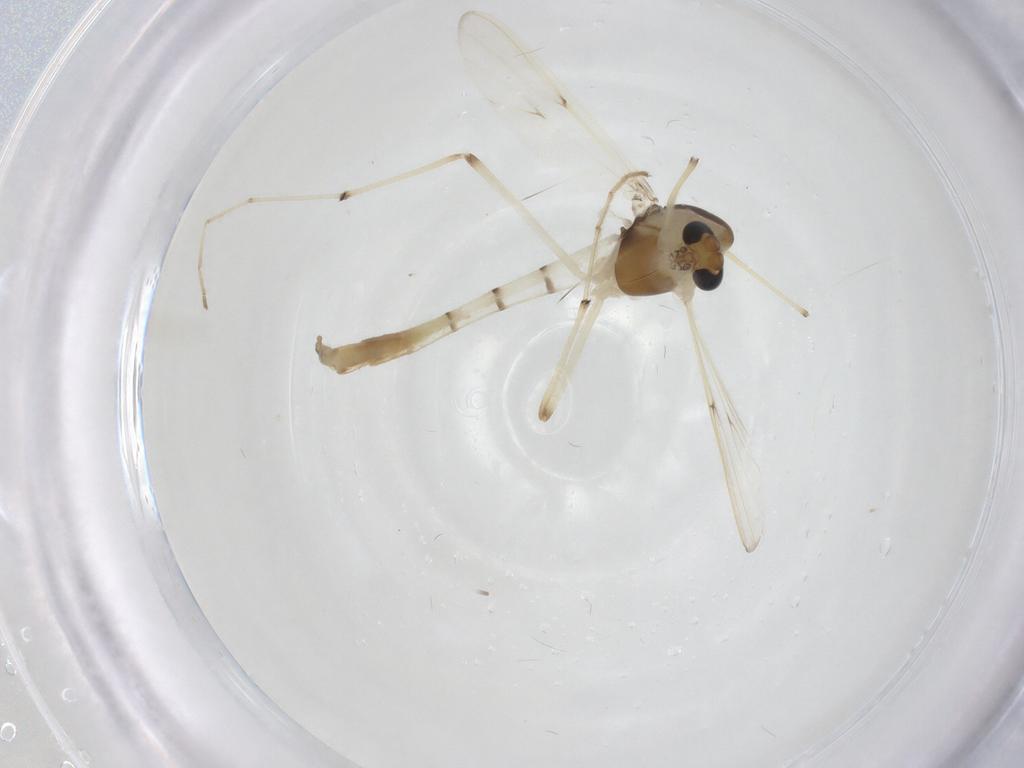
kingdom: Animalia
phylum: Arthropoda
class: Insecta
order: Diptera
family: Chironomidae
